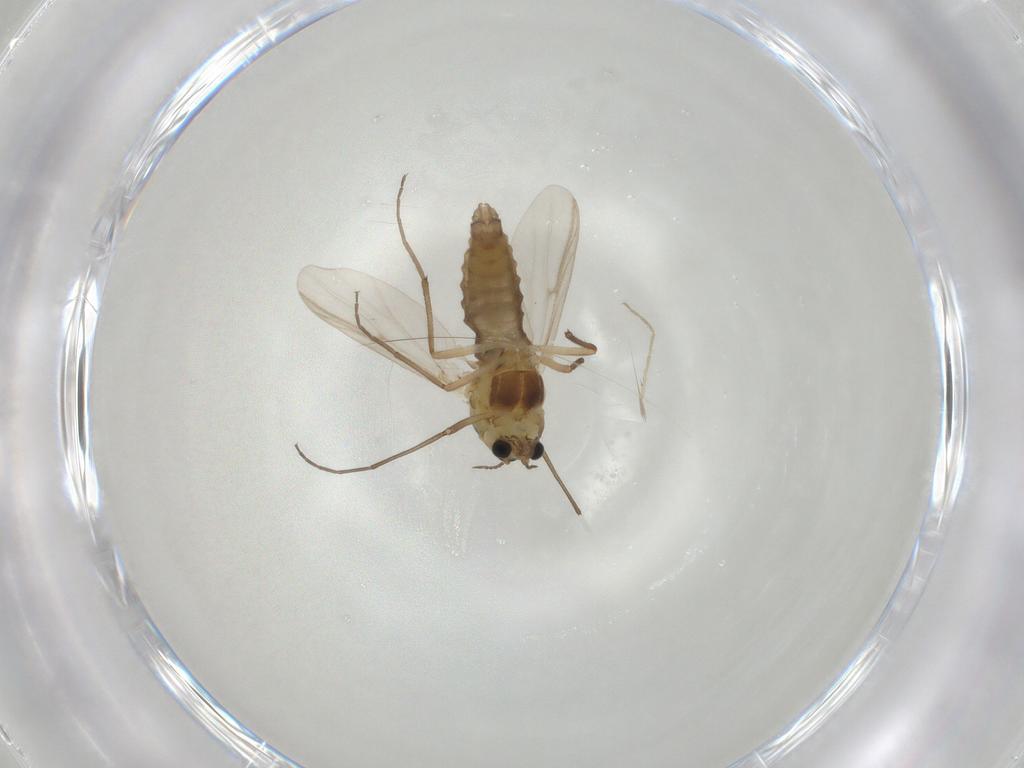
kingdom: Animalia
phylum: Arthropoda
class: Insecta
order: Diptera
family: Chironomidae
